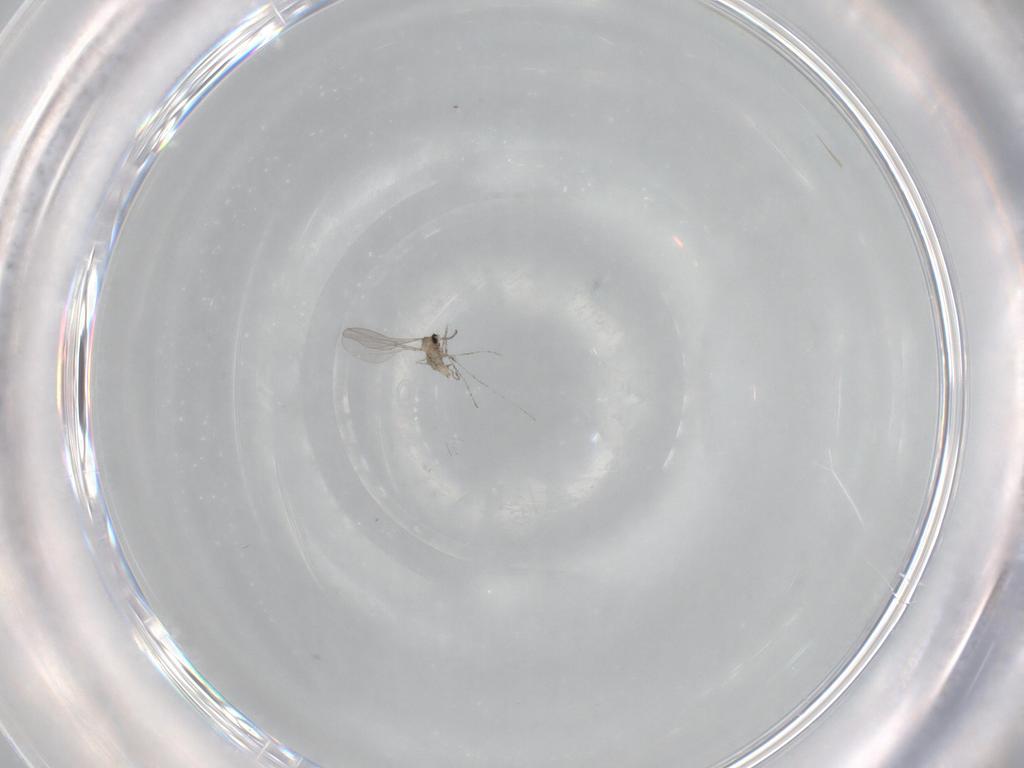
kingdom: Animalia
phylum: Arthropoda
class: Insecta
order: Diptera
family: Cecidomyiidae
